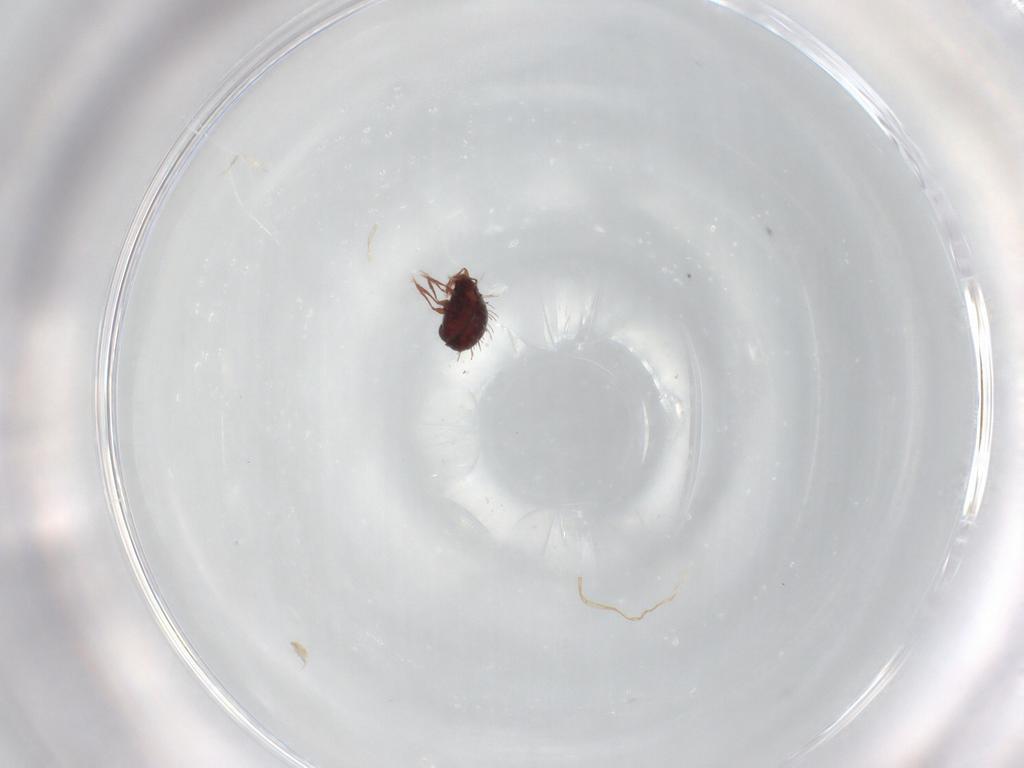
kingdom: Animalia
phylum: Arthropoda
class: Arachnida
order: Sarcoptiformes
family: Caloppiidae
